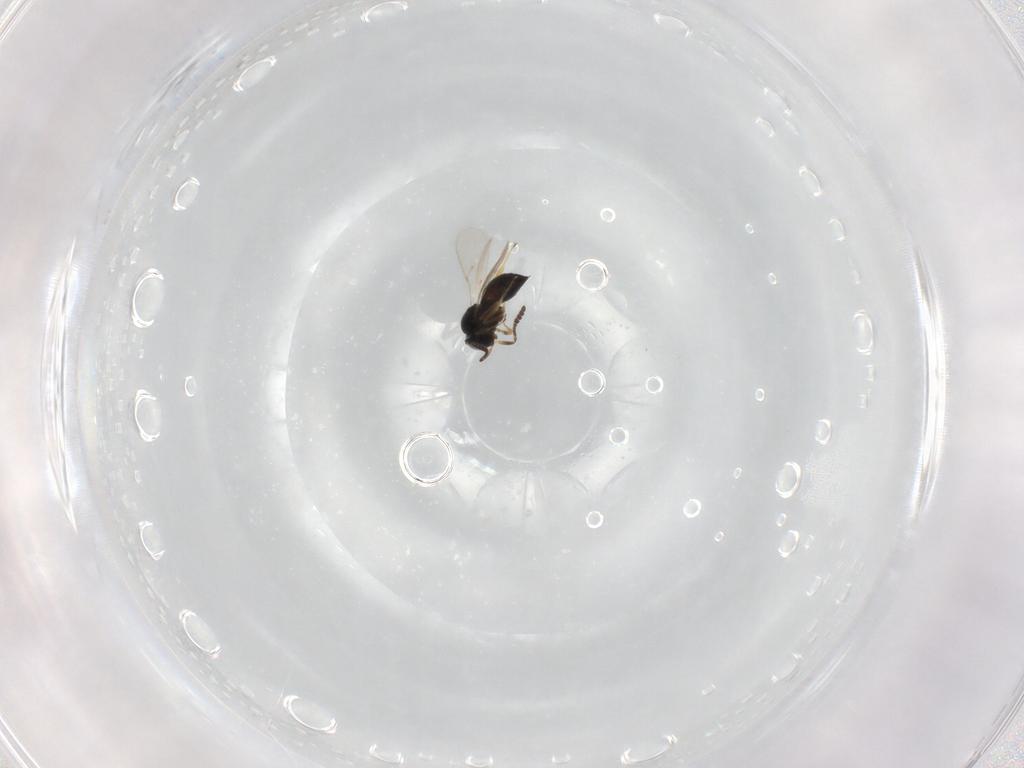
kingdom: Animalia
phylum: Arthropoda
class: Insecta
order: Hymenoptera
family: Scelionidae
